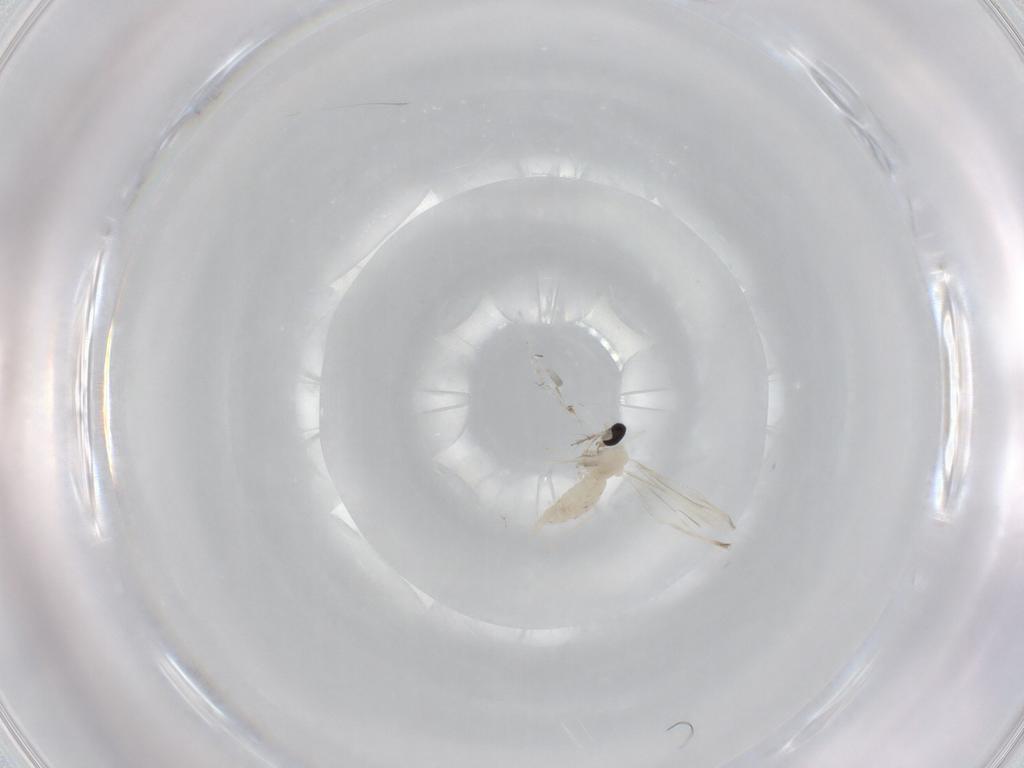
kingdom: Animalia
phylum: Arthropoda
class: Insecta
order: Diptera
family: Cecidomyiidae
